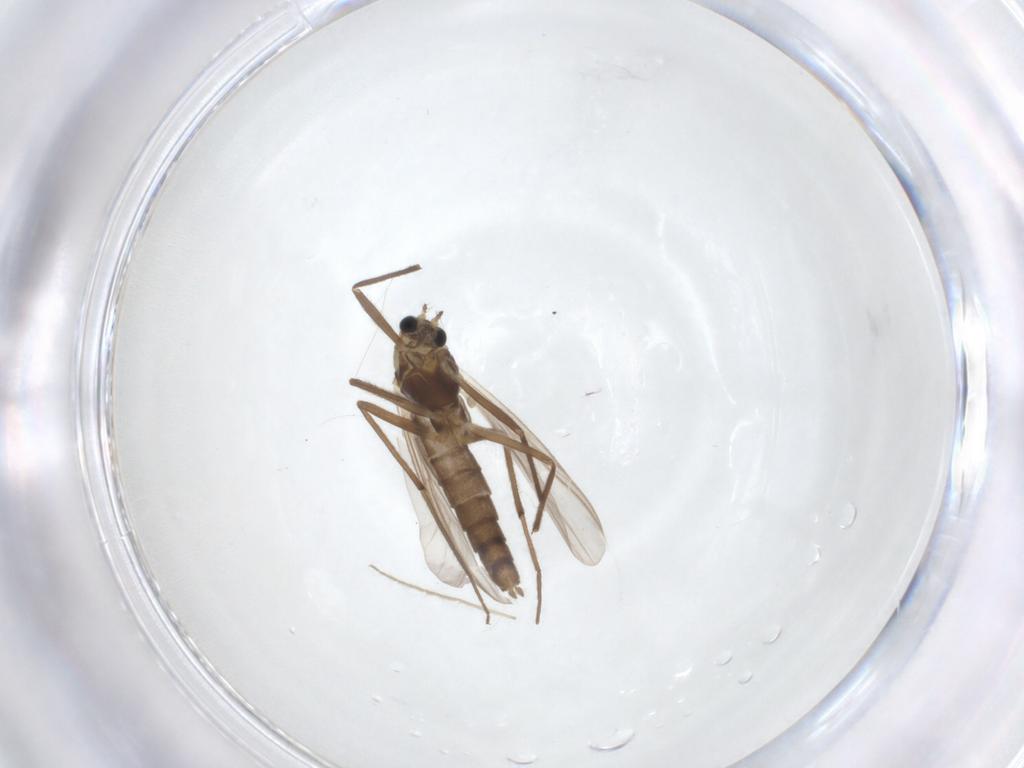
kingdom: Animalia
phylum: Arthropoda
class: Insecta
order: Diptera
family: Chironomidae
